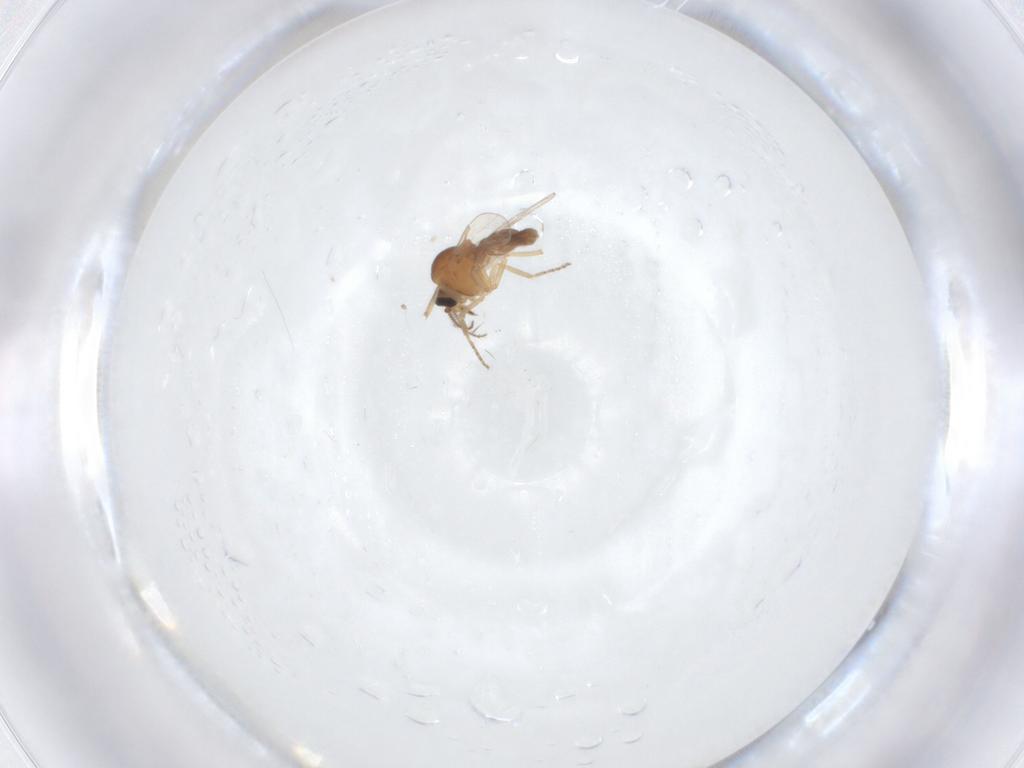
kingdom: Animalia
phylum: Arthropoda
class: Insecta
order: Diptera
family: Ceratopogonidae
